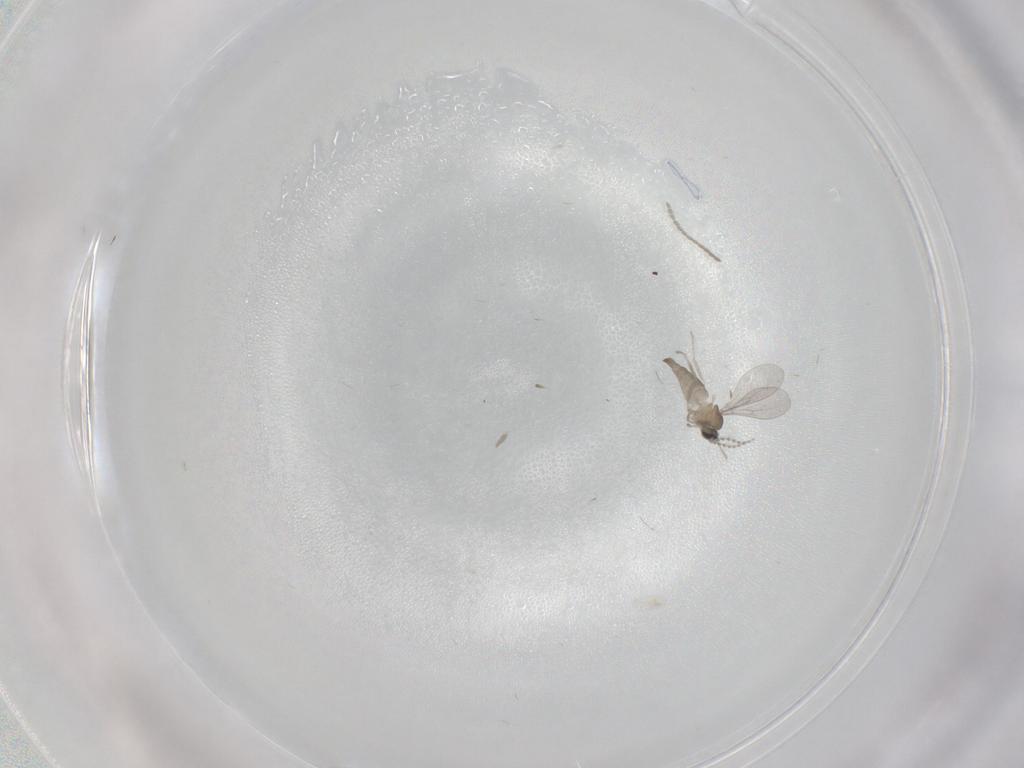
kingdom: Animalia
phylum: Arthropoda
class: Insecta
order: Diptera
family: Cecidomyiidae
